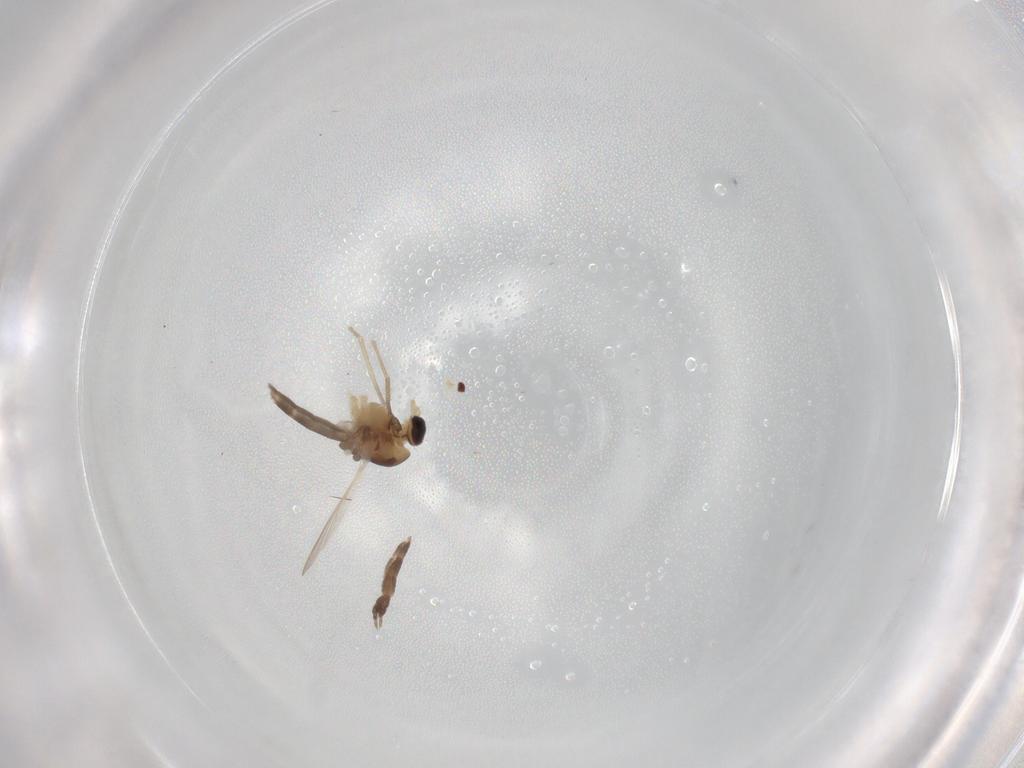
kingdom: Animalia
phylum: Arthropoda
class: Insecta
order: Diptera
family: Chironomidae
